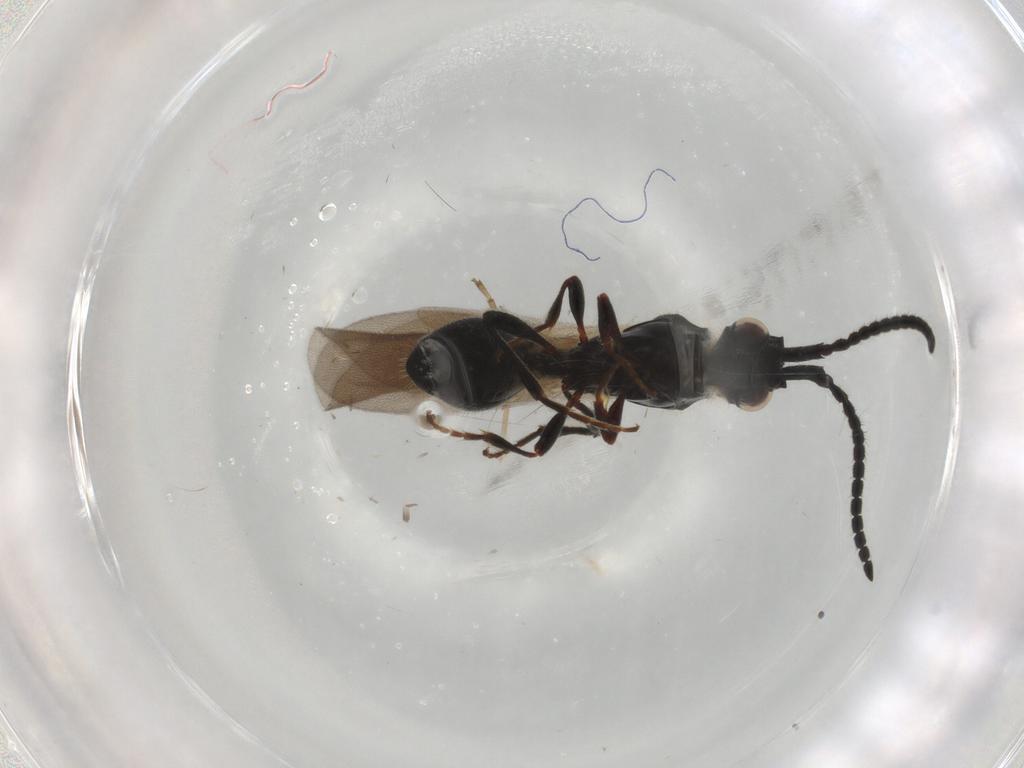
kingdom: Animalia
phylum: Arthropoda
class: Insecta
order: Hymenoptera
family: Diapriidae
